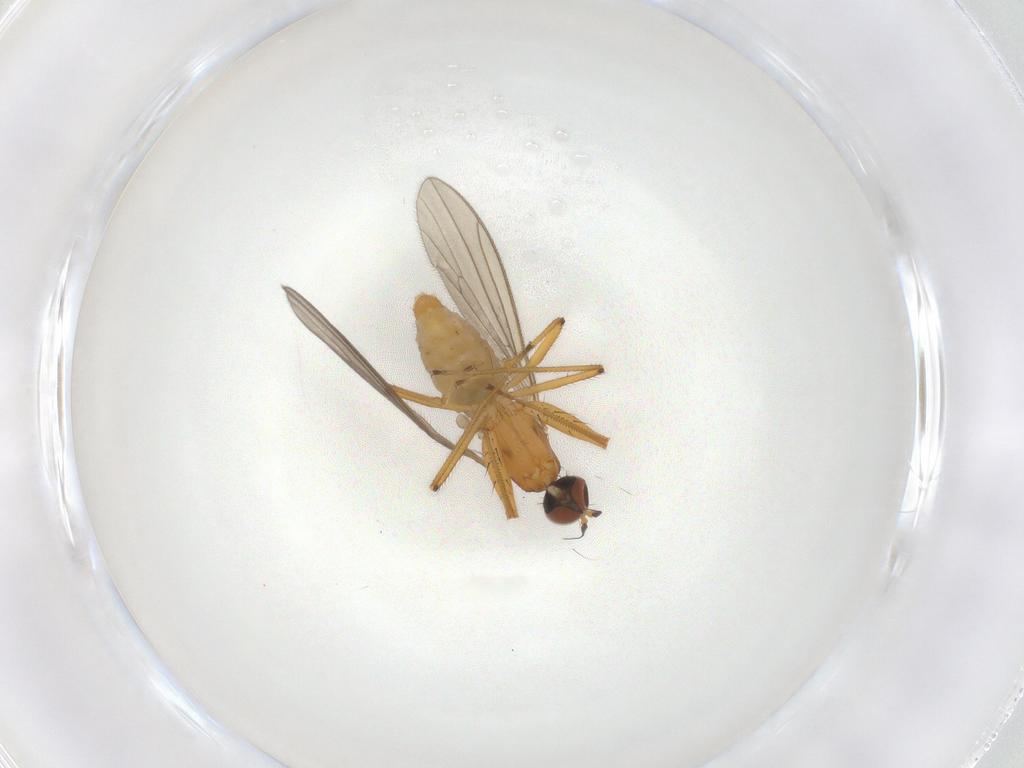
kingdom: Animalia
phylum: Arthropoda
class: Insecta
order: Diptera
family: Empididae
